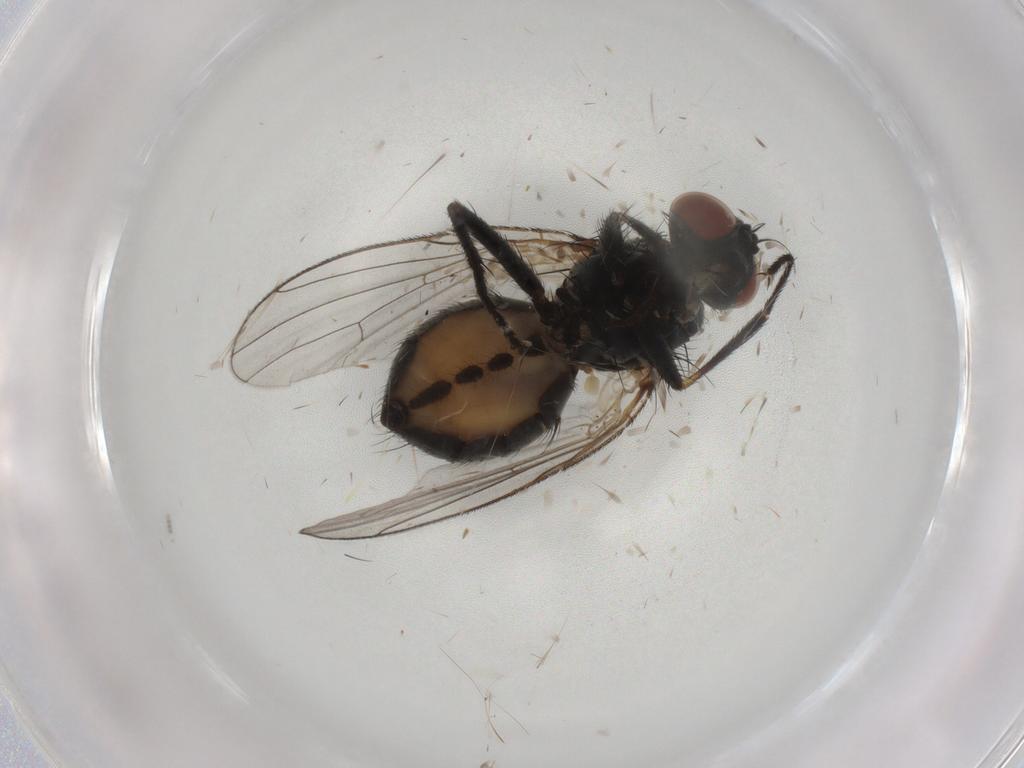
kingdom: Animalia
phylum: Arthropoda
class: Insecta
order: Diptera
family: Muscidae
